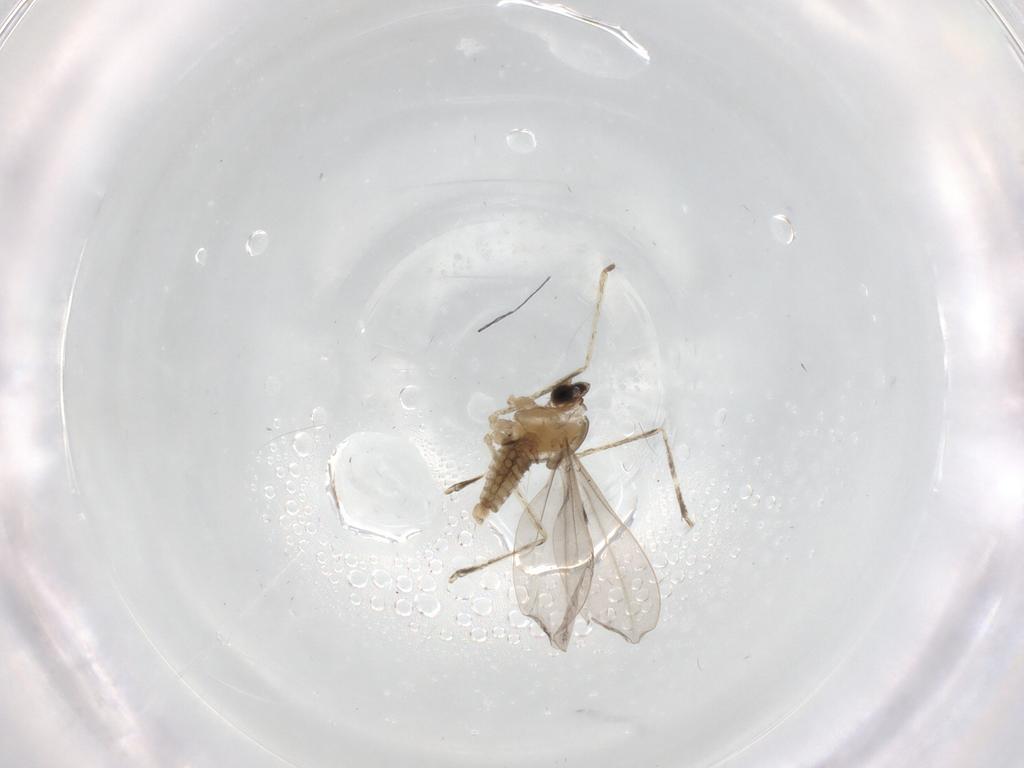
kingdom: Animalia
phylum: Arthropoda
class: Insecta
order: Diptera
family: Cecidomyiidae
